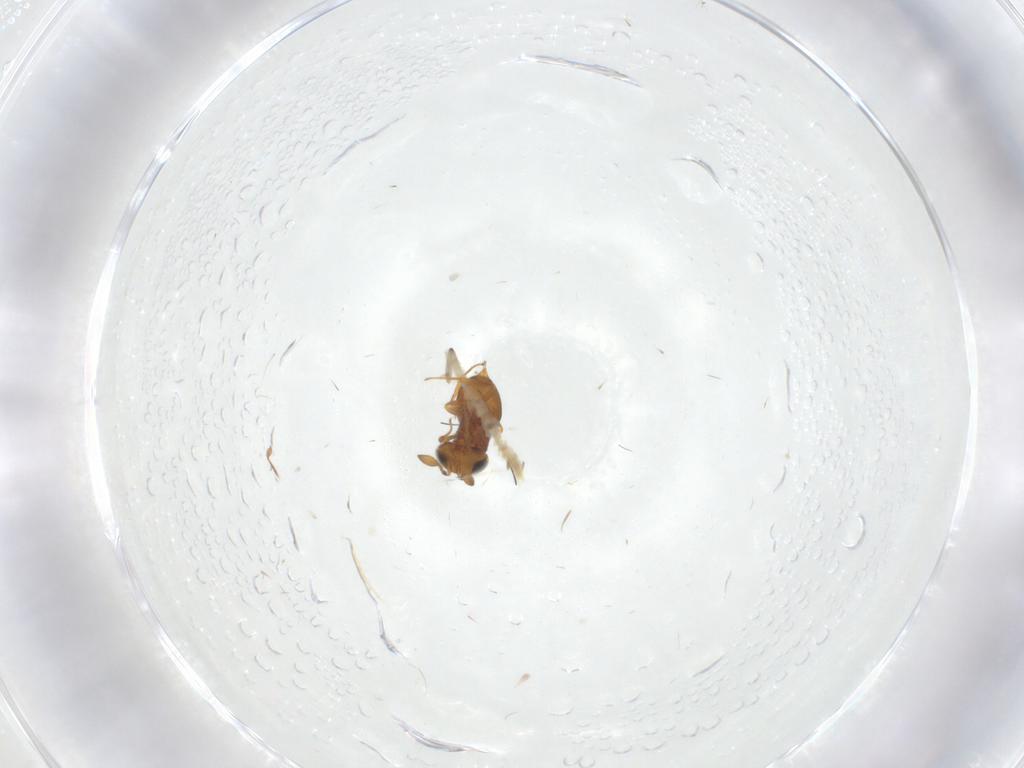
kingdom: Animalia
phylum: Arthropoda
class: Insecta
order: Hymenoptera
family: Scelionidae
